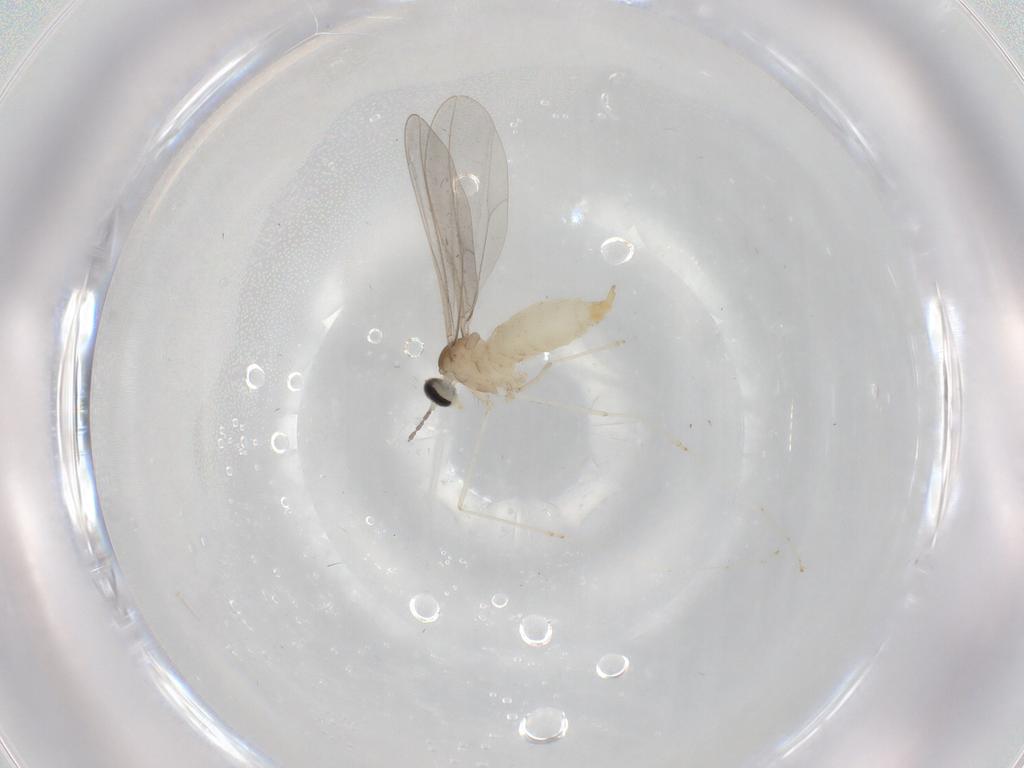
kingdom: Animalia
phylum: Arthropoda
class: Insecta
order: Diptera
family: Cecidomyiidae
